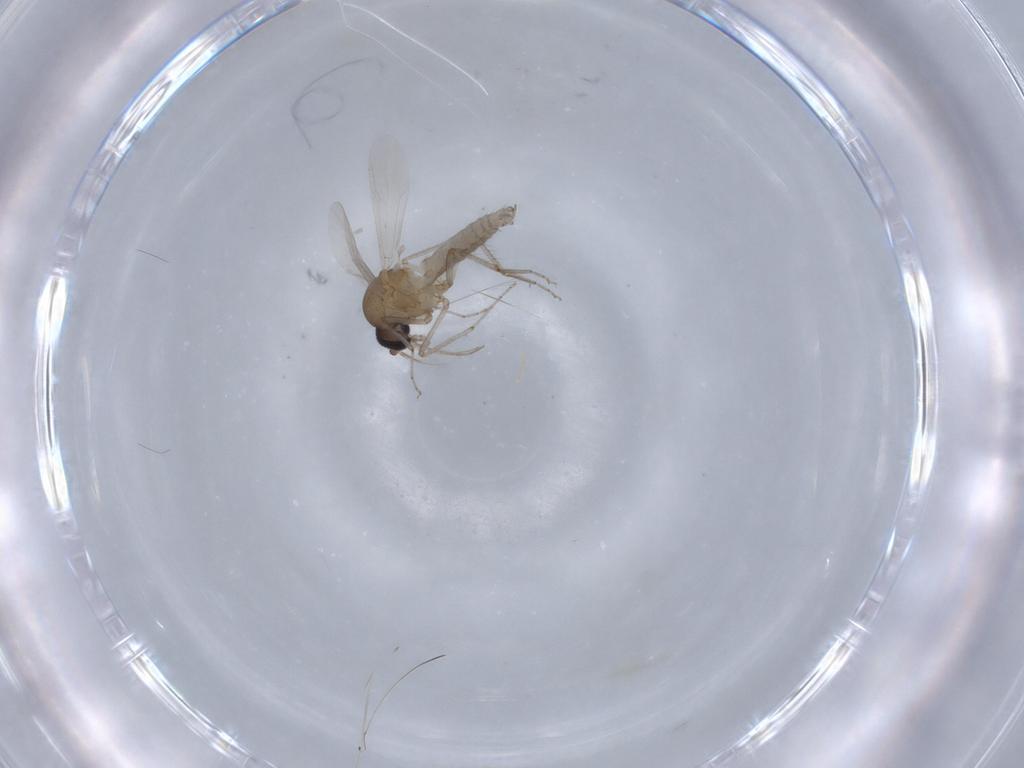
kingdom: Animalia
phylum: Arthropoda
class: Insecta
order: Diptera
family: Ceratopogonidae
